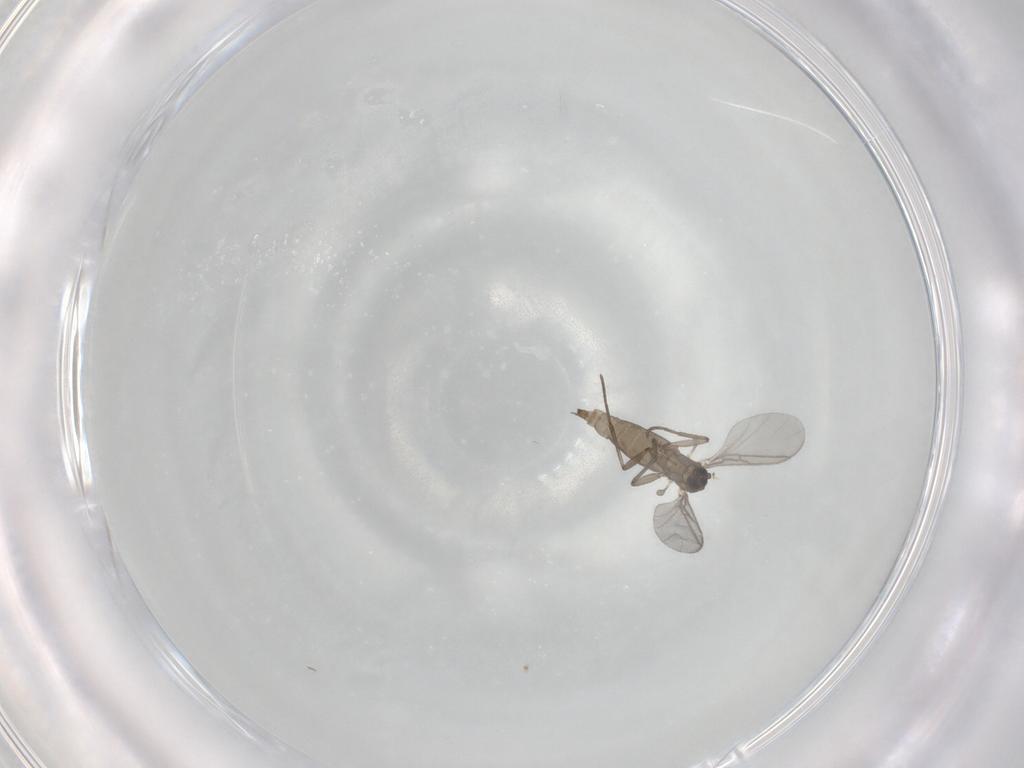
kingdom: Animalia
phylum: Arthropoda
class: Insecta
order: Diptera
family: Sciaridae
